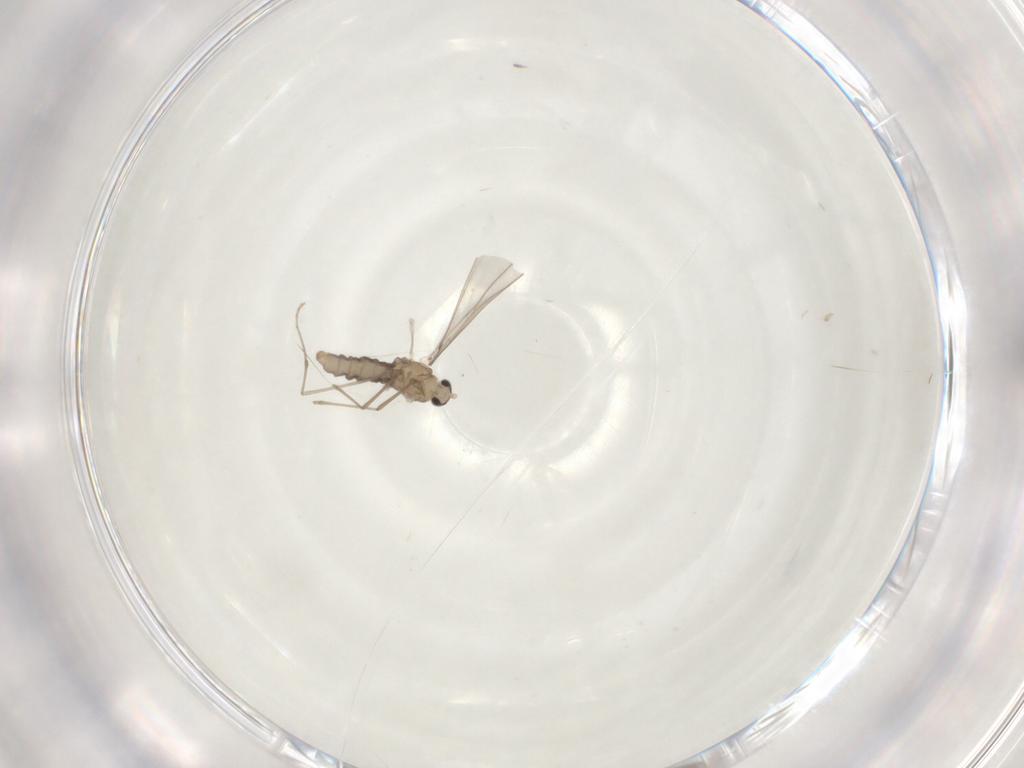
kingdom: Animalia
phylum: Arthropoda
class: Insecta
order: Diptera
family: Cecidomyiidae
